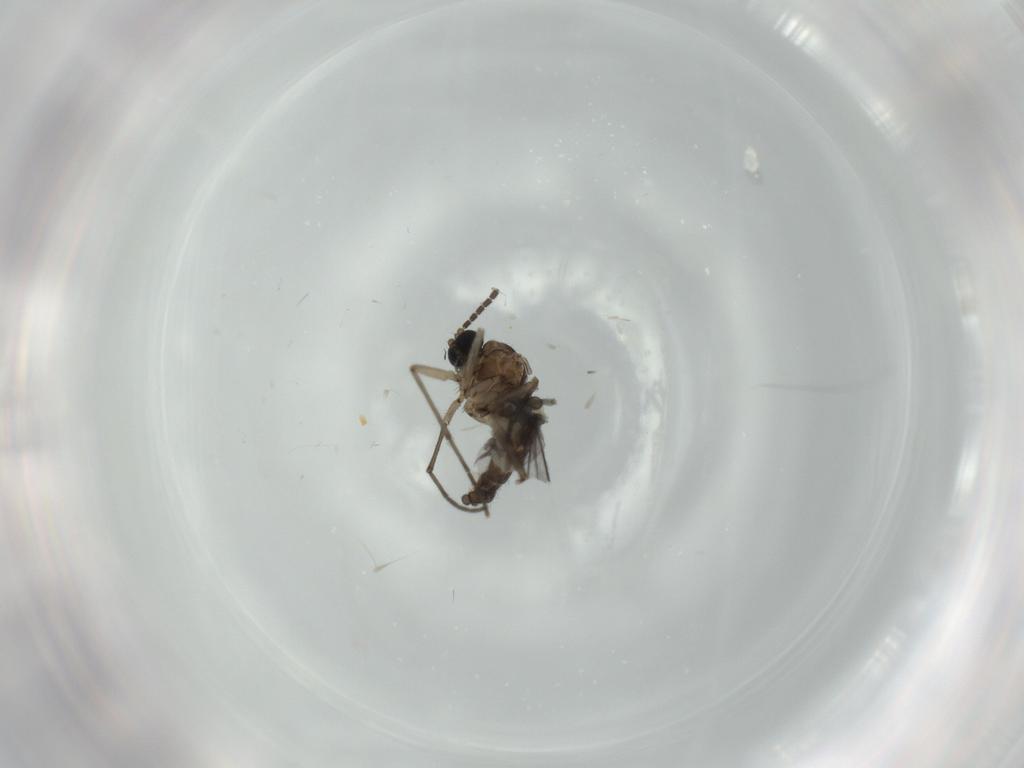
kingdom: Animalia
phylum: Arthropoda
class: Insecta
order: Diptera
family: Sciaridae
